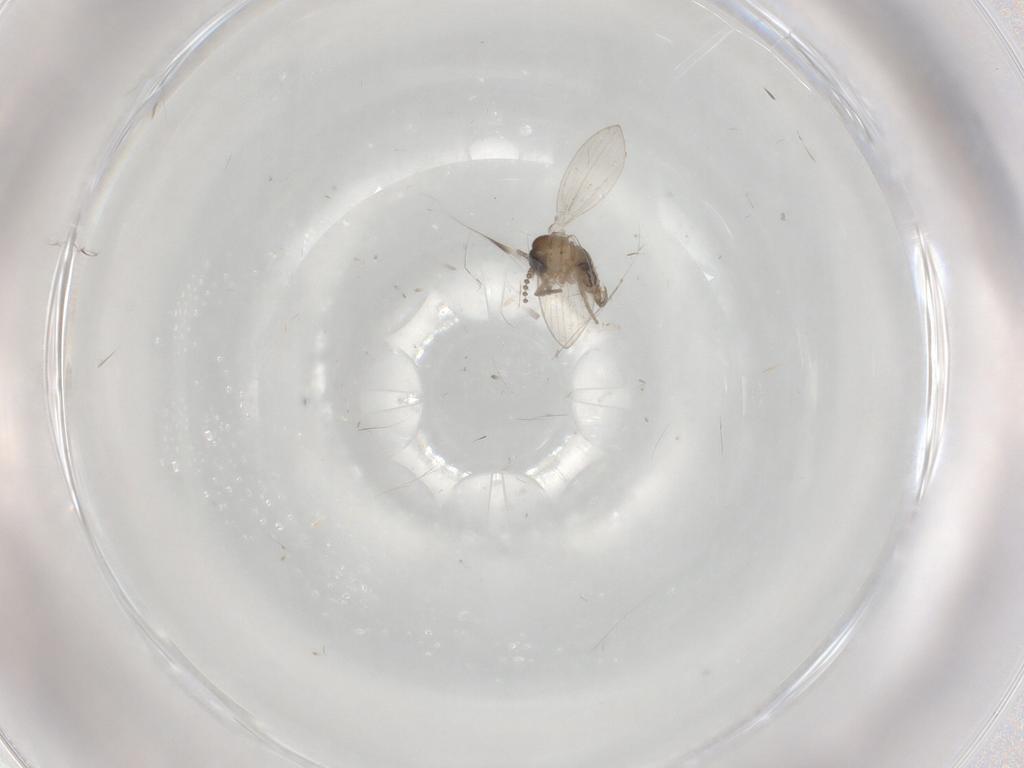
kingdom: Animalia
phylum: Arthropoda
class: Insecta
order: Diptera
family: Psychodidae
